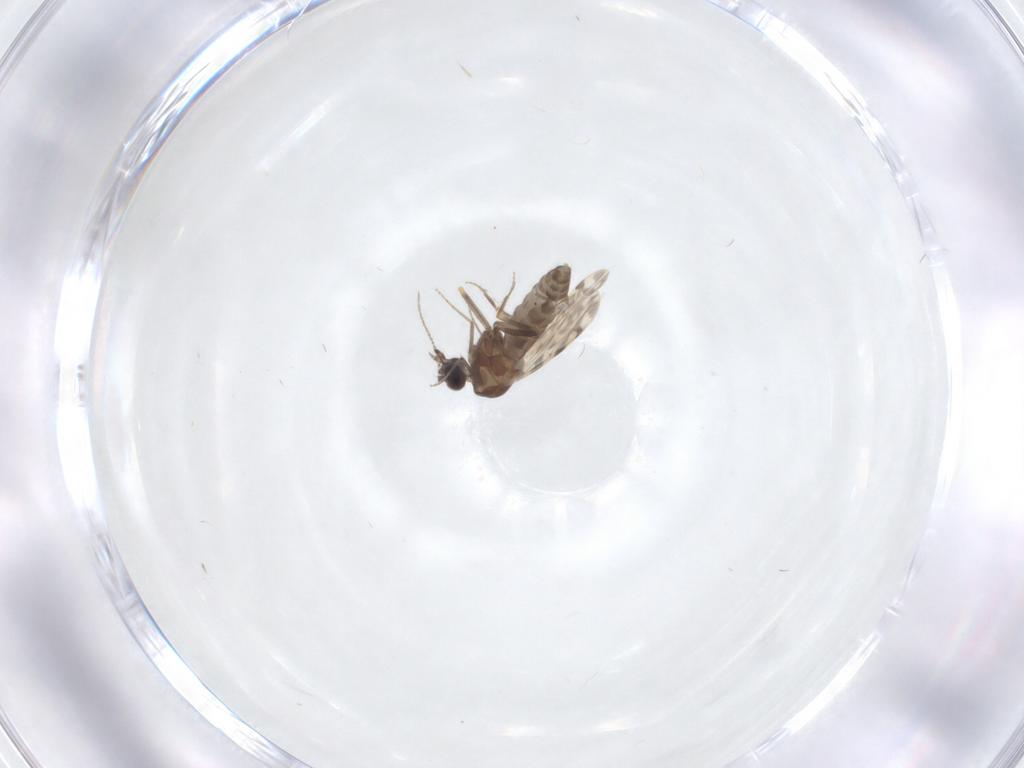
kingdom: Animalia
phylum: Arthropoda
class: Insecta
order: Diptera
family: Ceratopogonidae
